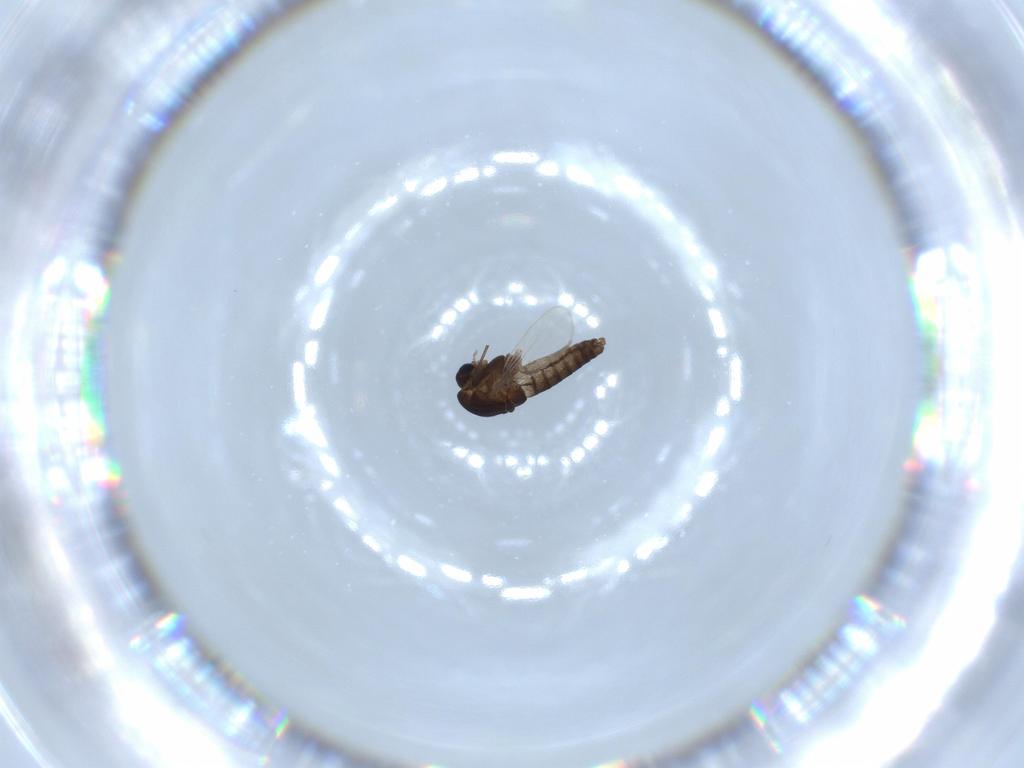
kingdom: Animalia
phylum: Arthropoda
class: Insecta
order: Diptera
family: Chironomidae
